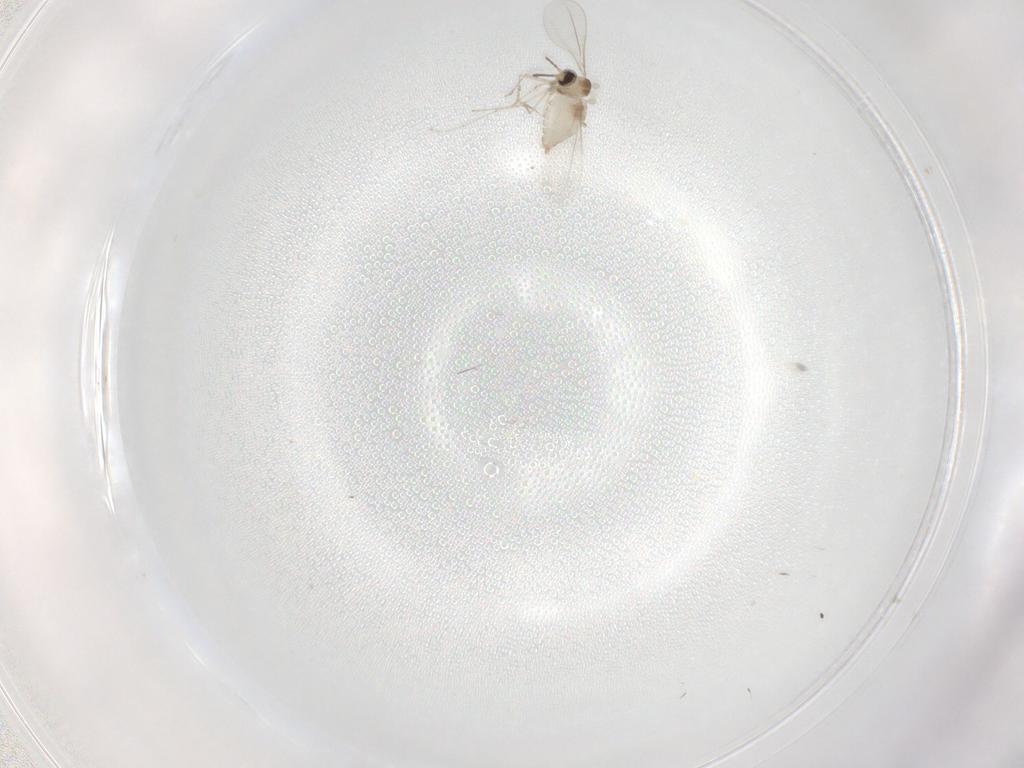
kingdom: Animalia
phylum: Arthropoda
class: Insecta
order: Diptera
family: Cecidomyiidae
